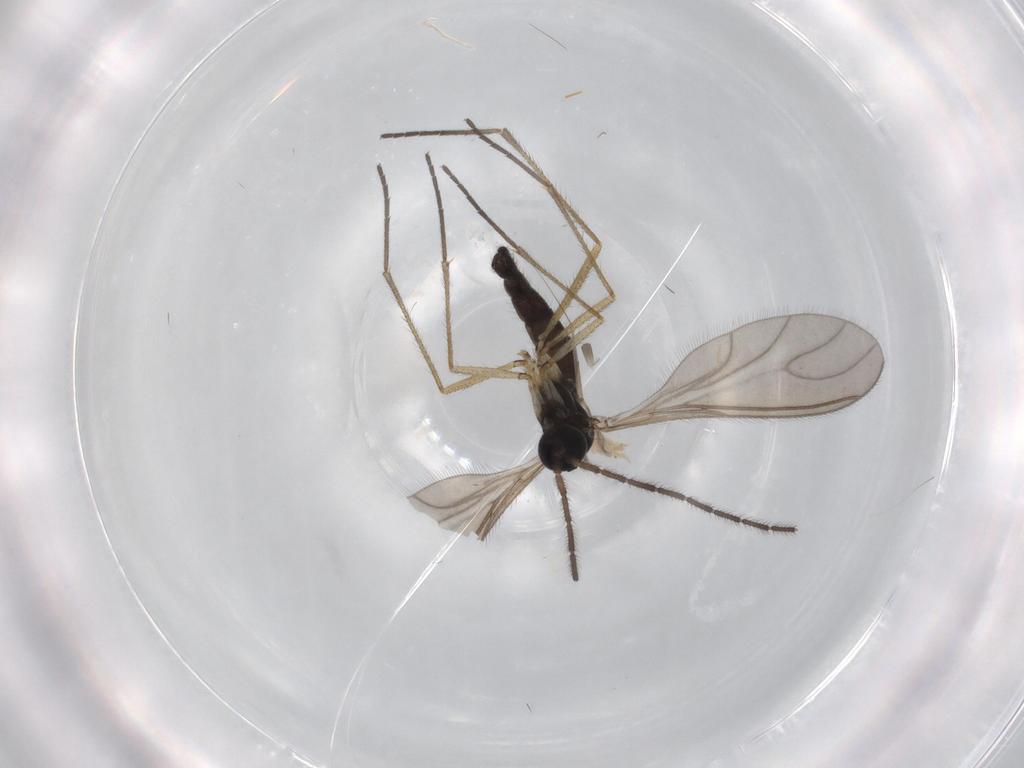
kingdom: Animalia
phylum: Arthropoda
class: Insecta
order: Diptera
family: Sciaridae
